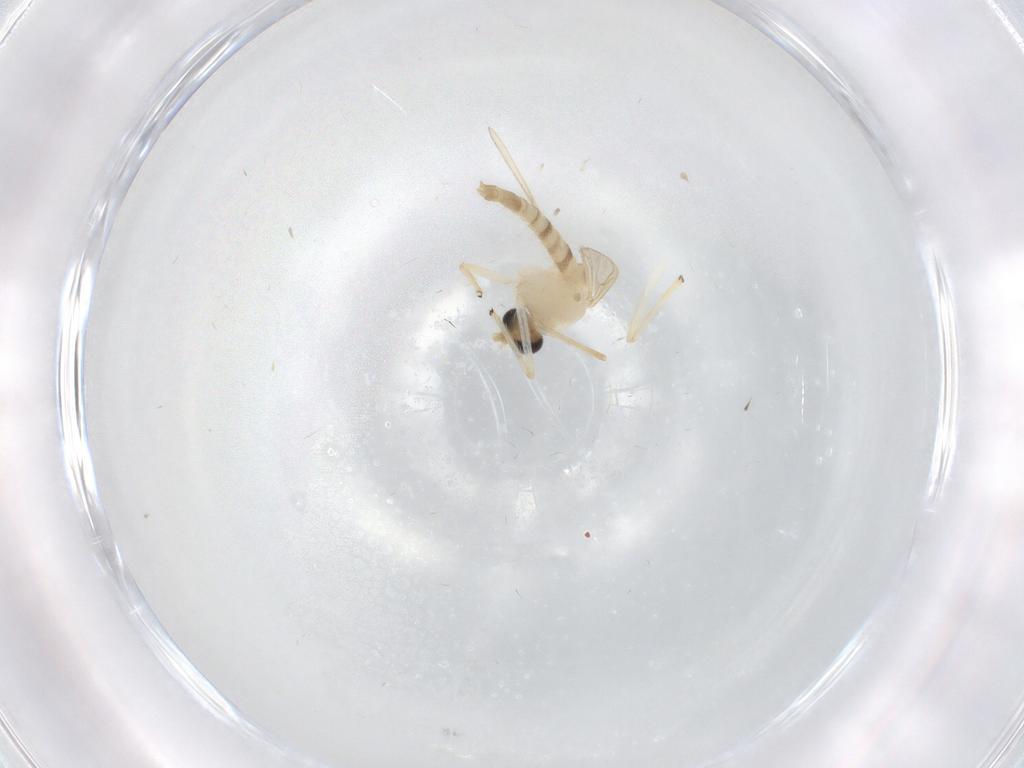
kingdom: Animalia
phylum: Arthropoda
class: Insecta
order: Diptera
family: Chironomidae
